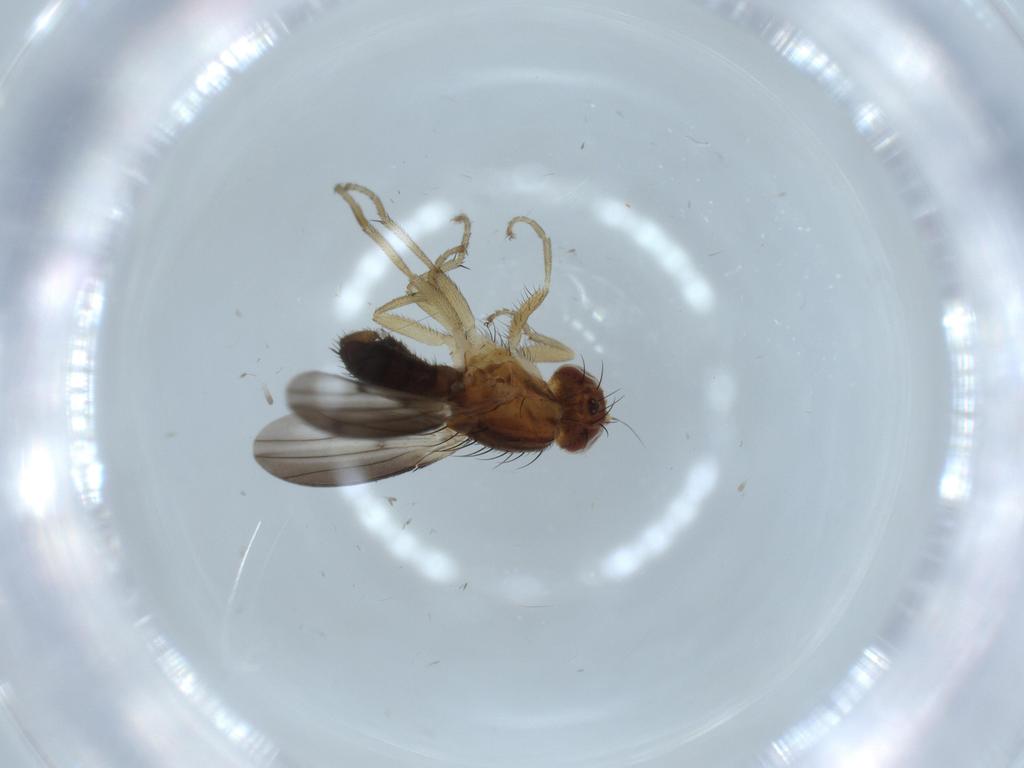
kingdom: Animalia
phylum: Arthropoda
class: Insecta
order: Diptera
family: Heleomyzidae
